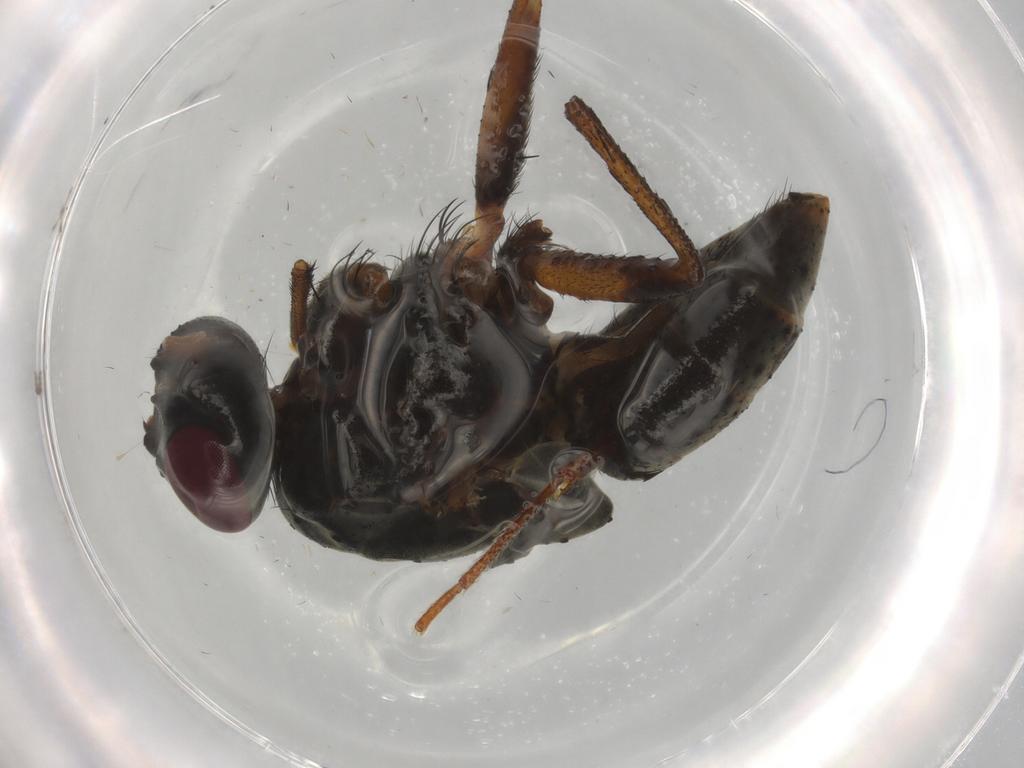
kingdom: Animalia
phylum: Arthropoda
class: Insecta
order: Diptera
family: Muscidae
